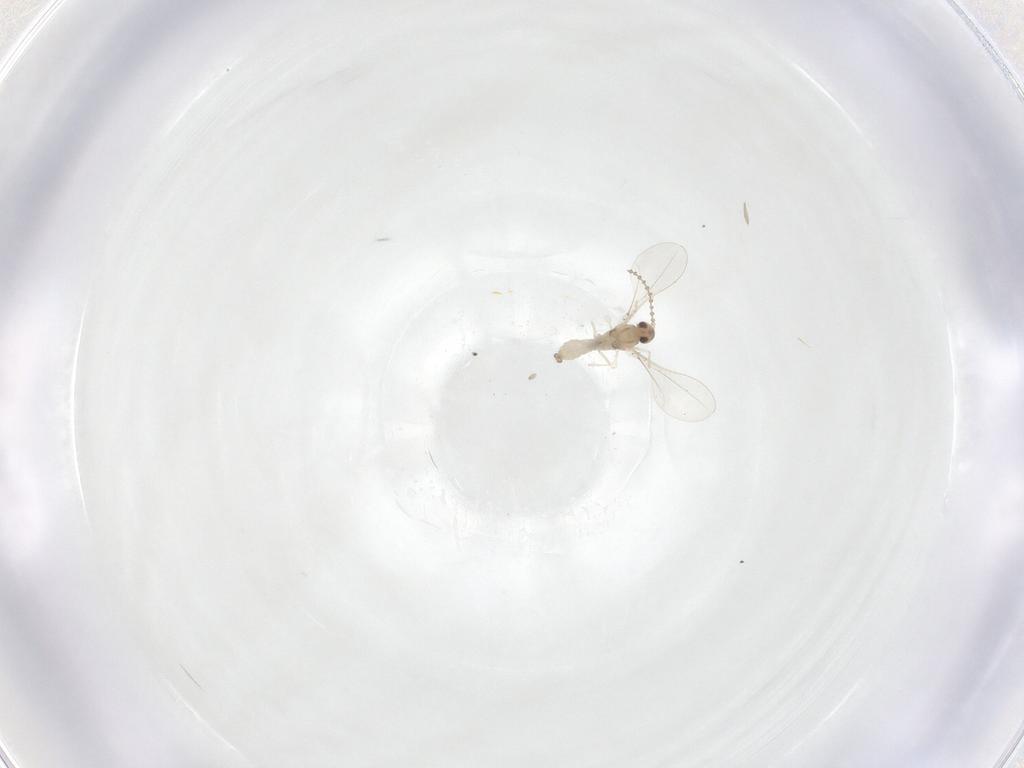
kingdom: Animalia
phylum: Arthropoda
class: Insecta
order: Diptera
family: Cecidomyiidae
